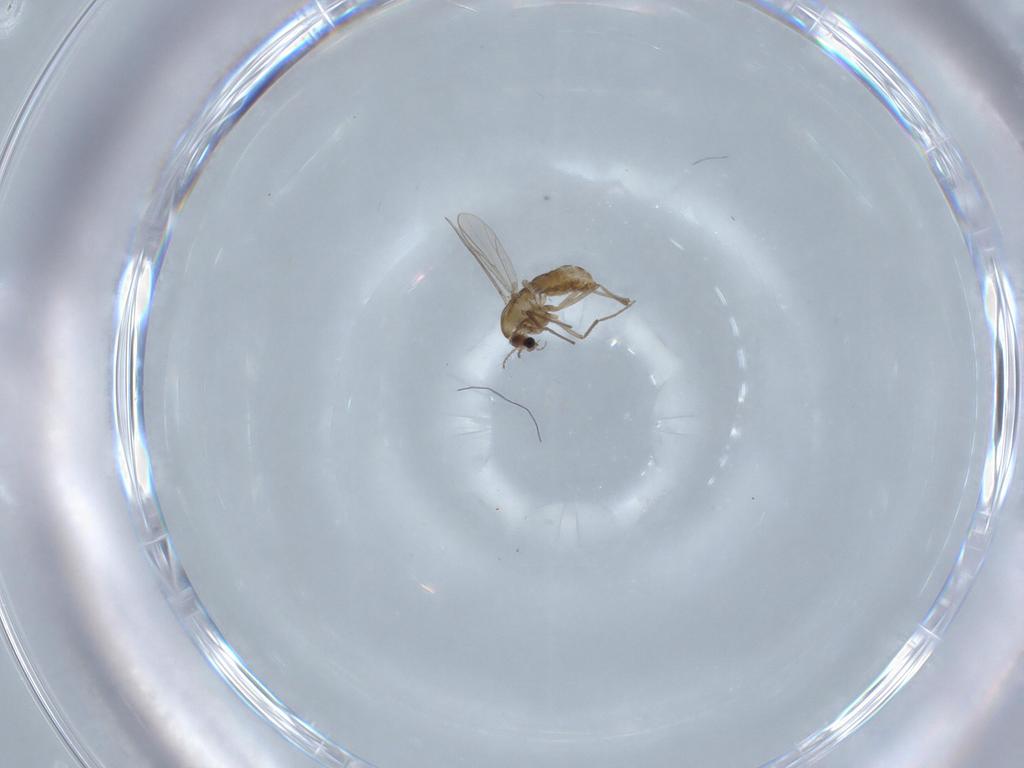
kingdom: Animalia
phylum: Arthropoda
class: Insecta
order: Diptera
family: Chironomidae
